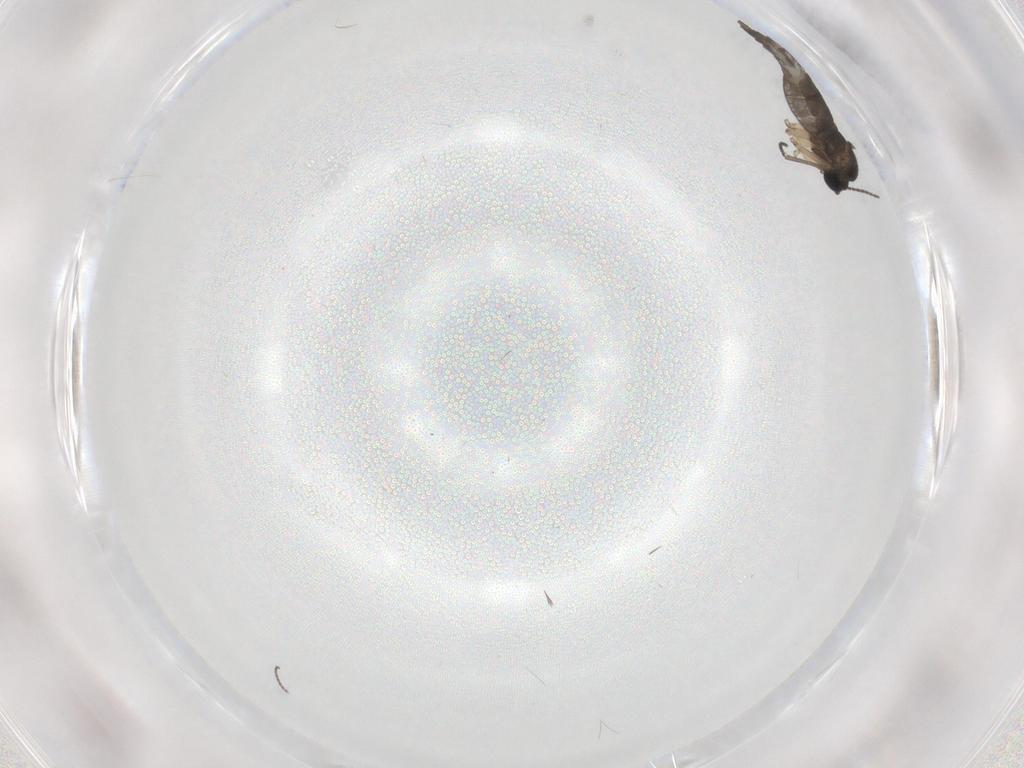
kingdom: Animalia
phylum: Arthropoda
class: Insecta
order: Diptera
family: Sciaridae
